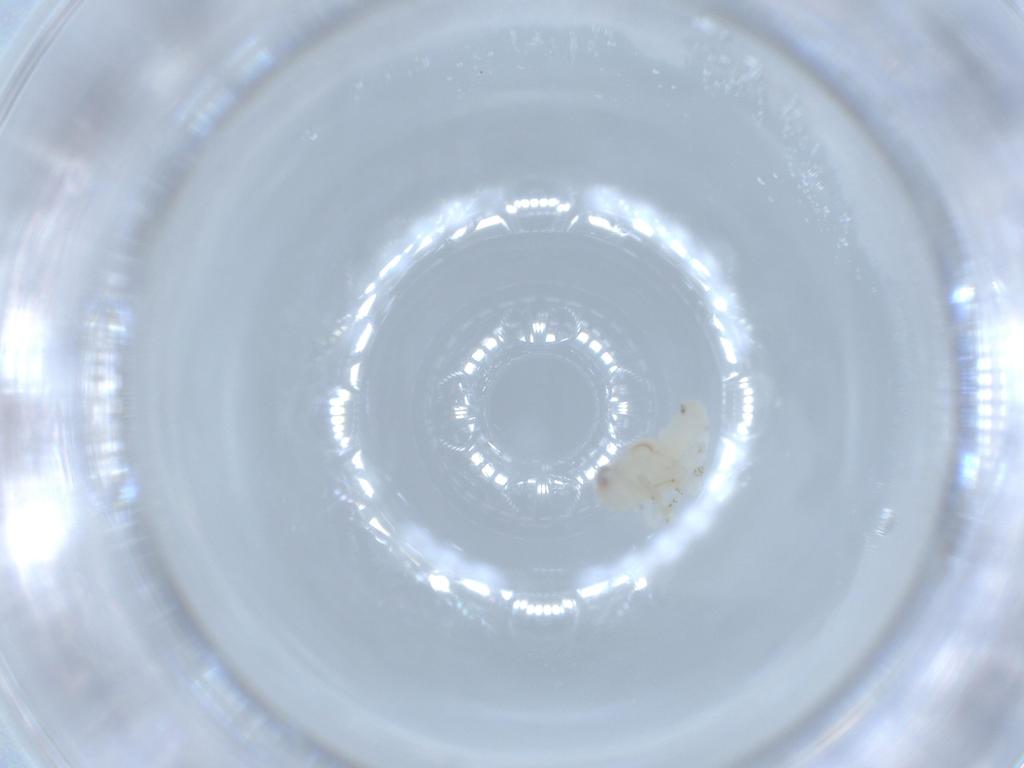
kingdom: Animalia
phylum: Arthropoda
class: Insecta
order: Hemiptera
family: Nogodinidae
